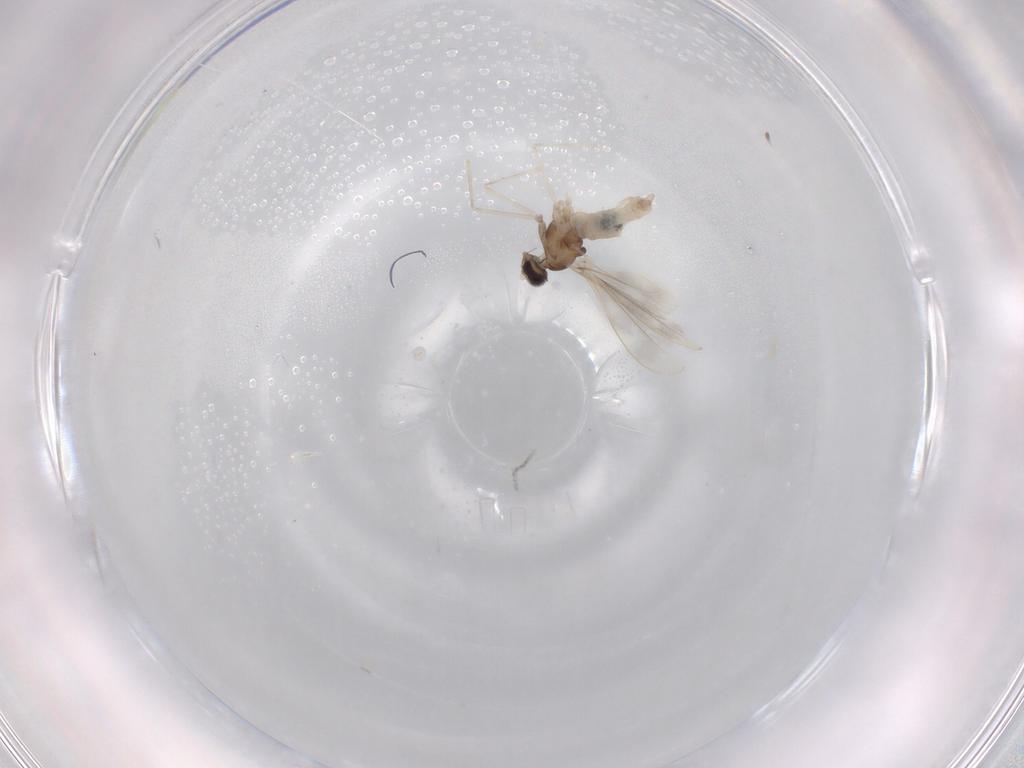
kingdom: Animalia
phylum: Arthropoda
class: Insecta
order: Diptera
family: Cecidomyiidae
